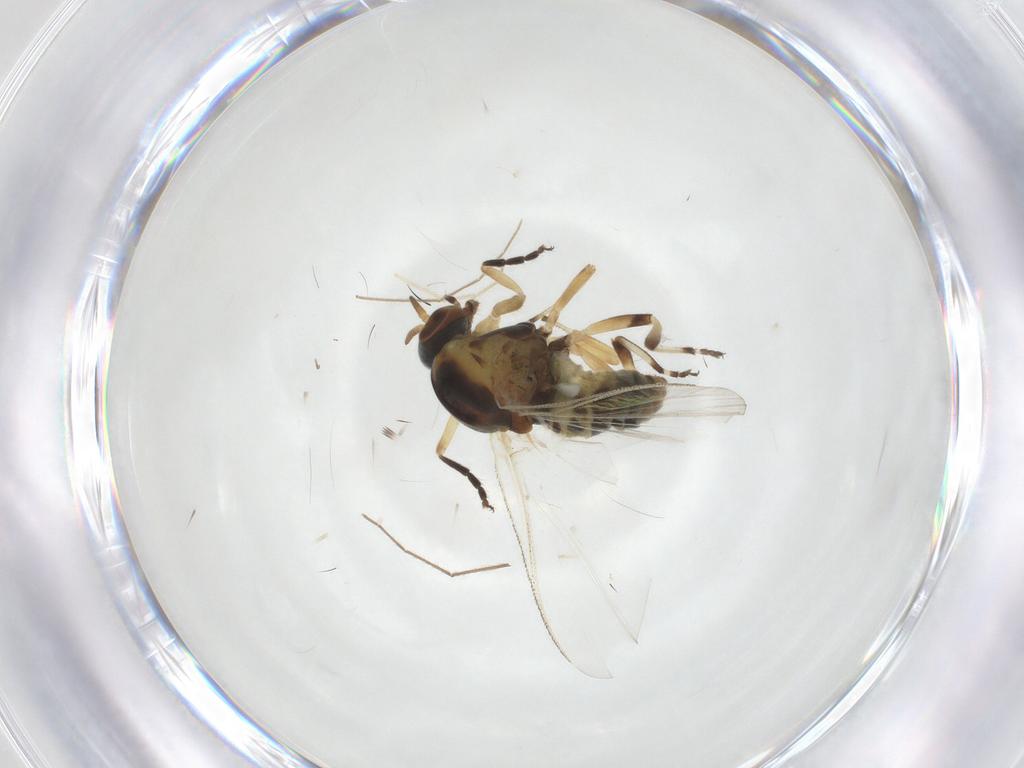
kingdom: Animalia
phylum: Arthropoda
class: Insecta
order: Diptera
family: Simuliidae
